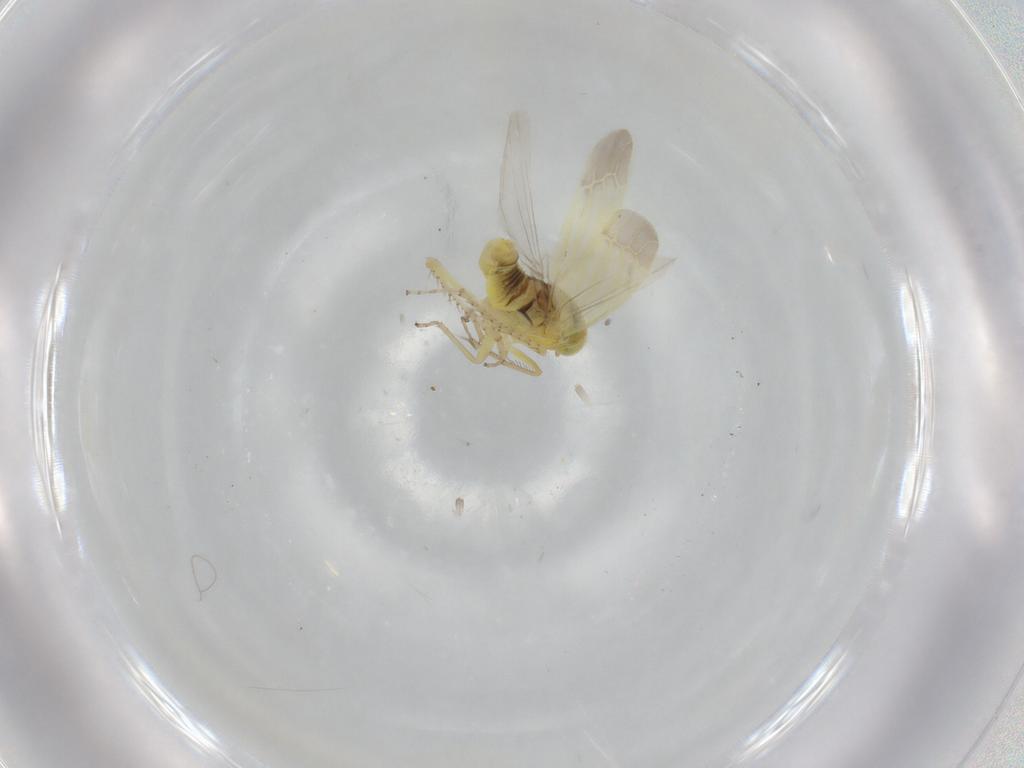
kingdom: Animalia
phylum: Arthropoda
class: Insecta
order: Hemiptera
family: Cicadellidae
